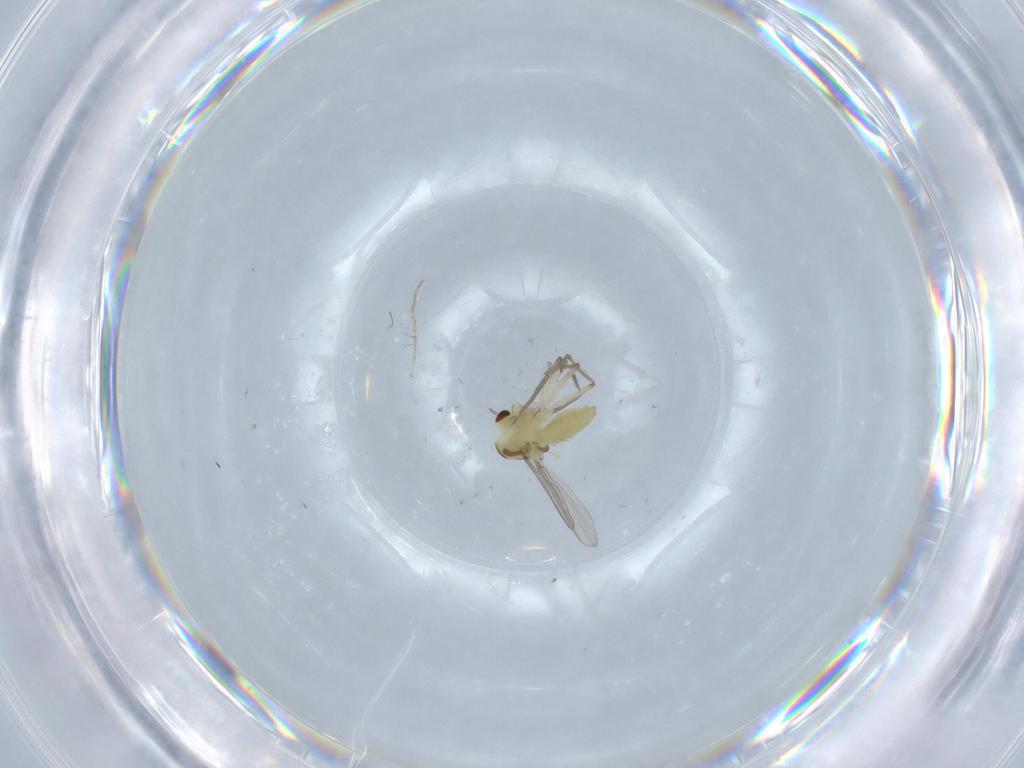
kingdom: Animalia
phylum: Arthropoda
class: Insecta
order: Diptera
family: Chironomidae
